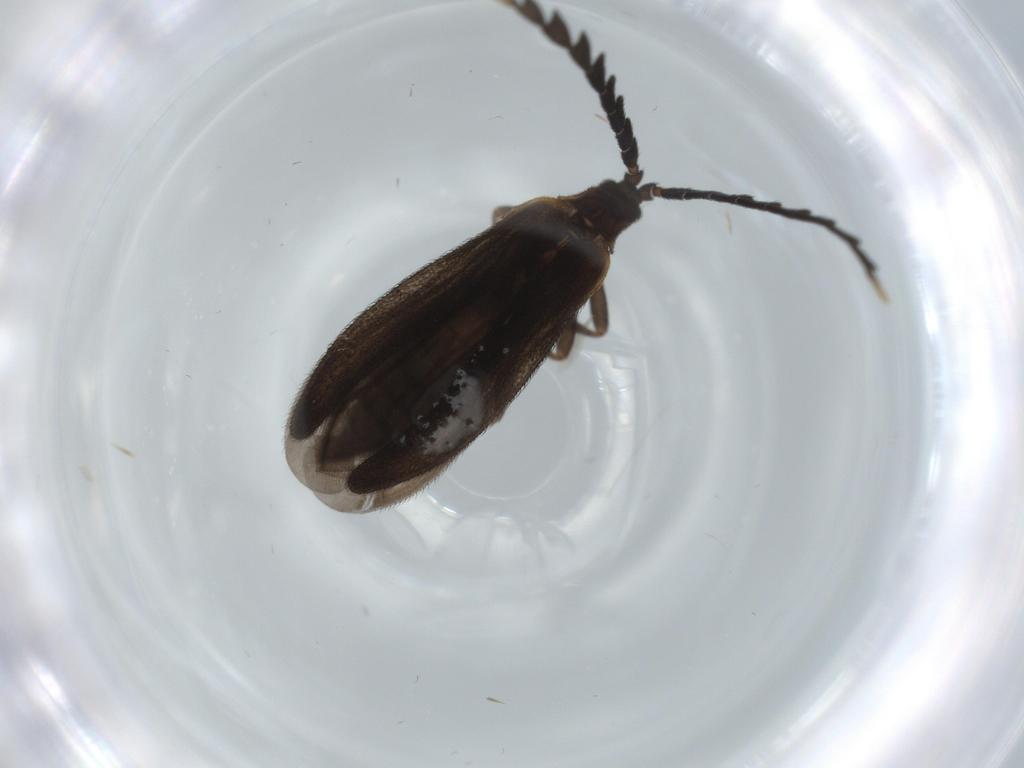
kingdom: Animalia
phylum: Arthropoda
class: Insecta
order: Coleoptera
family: Lycidae
